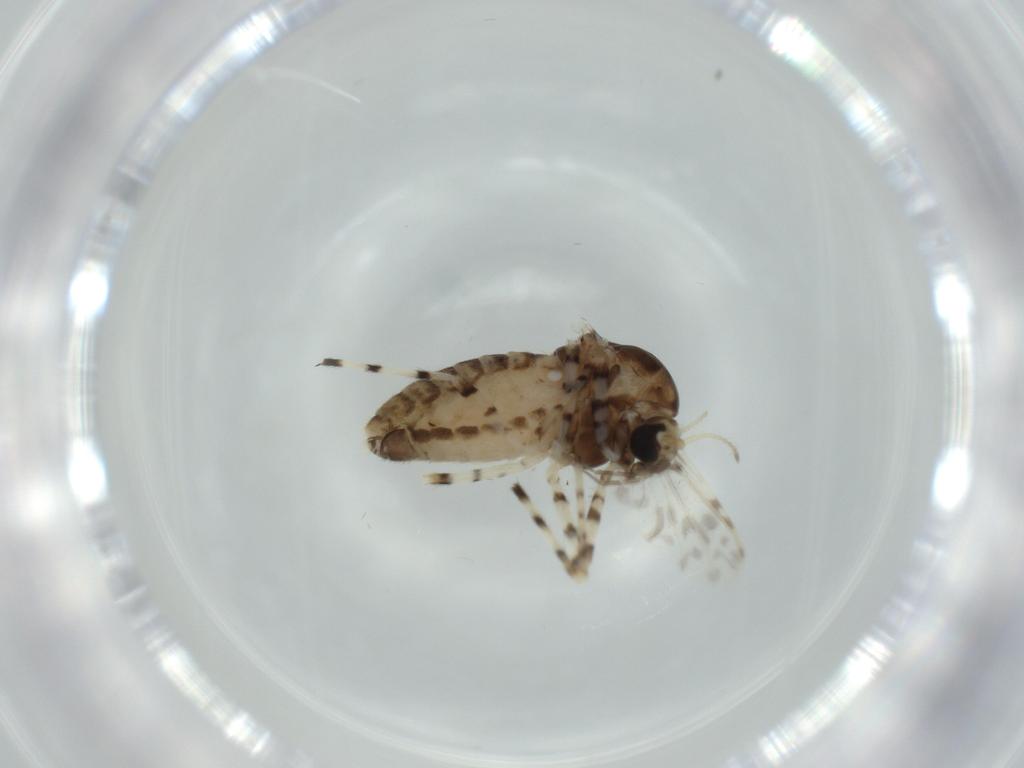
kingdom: Animalia
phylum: Arthropoda
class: Insecta
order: Diptera
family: Chironomidae
